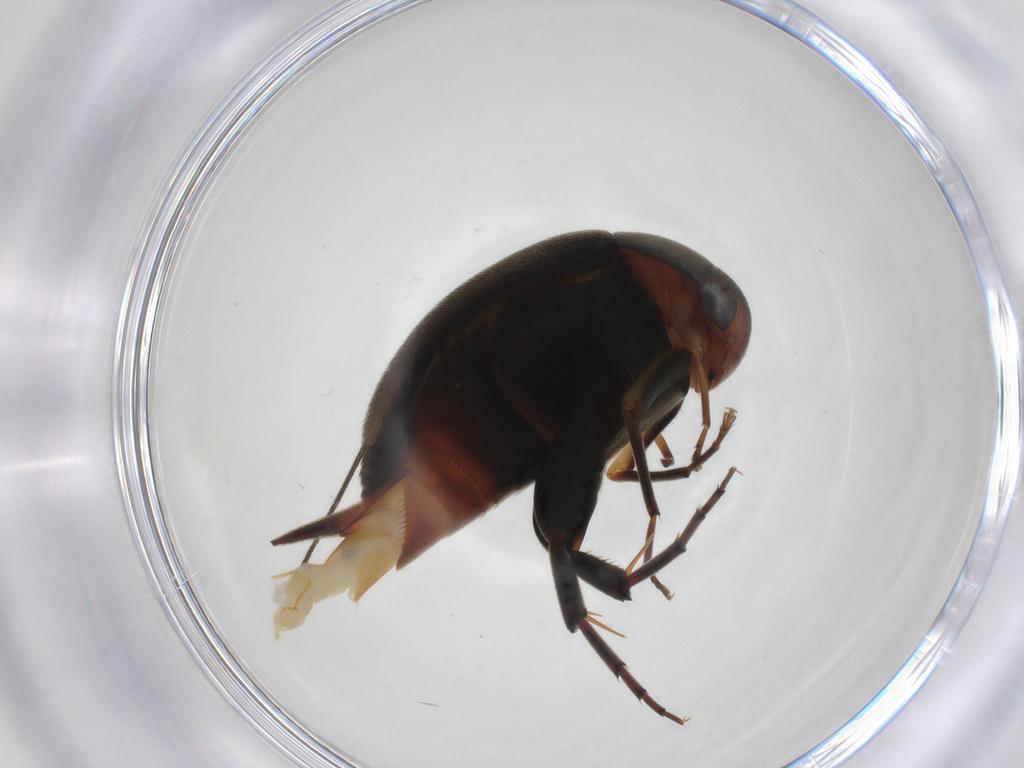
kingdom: Animalia
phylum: Arthropoda
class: Insecta
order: Coleoptera
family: Mordellidae
